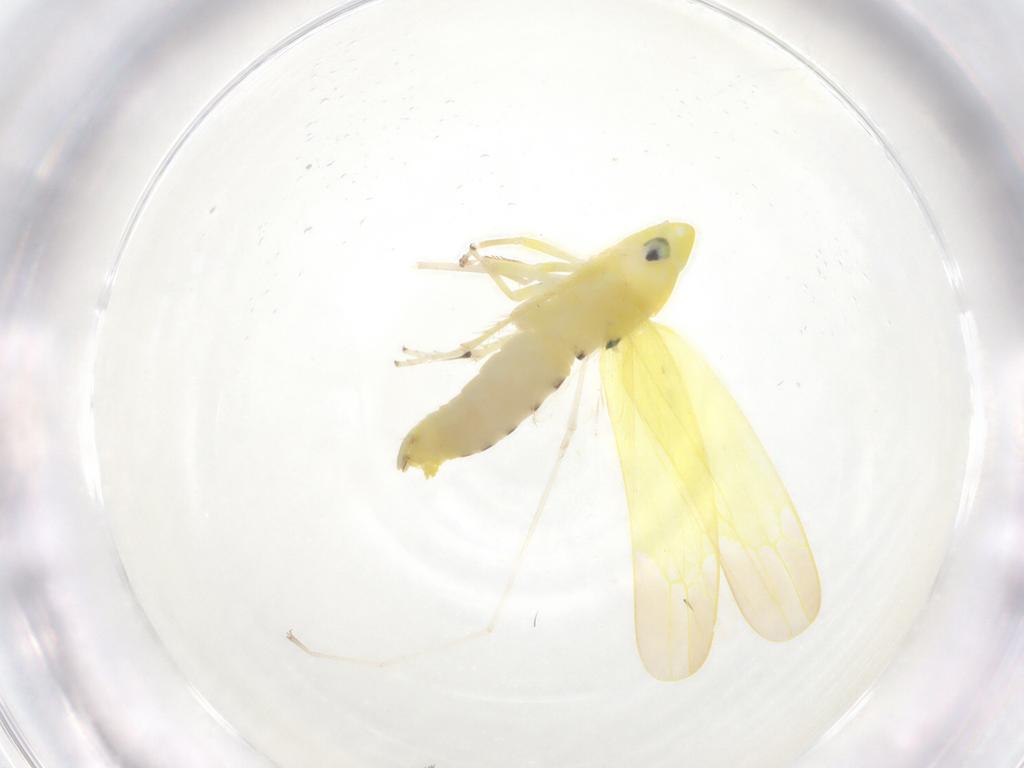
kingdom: Animalia
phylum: Arthropoda
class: Insecta
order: Hemiptera
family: Cicadellidae
